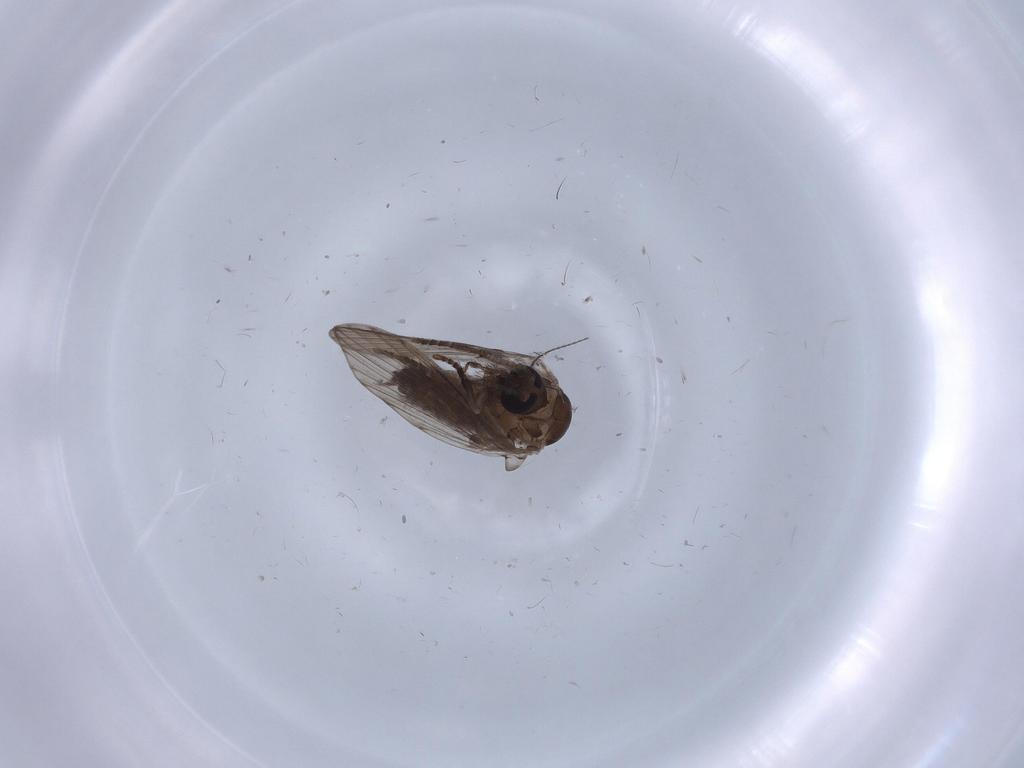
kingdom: Animalia
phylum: Arthropoda
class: Insecta
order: Diptera
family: Psychodidae
